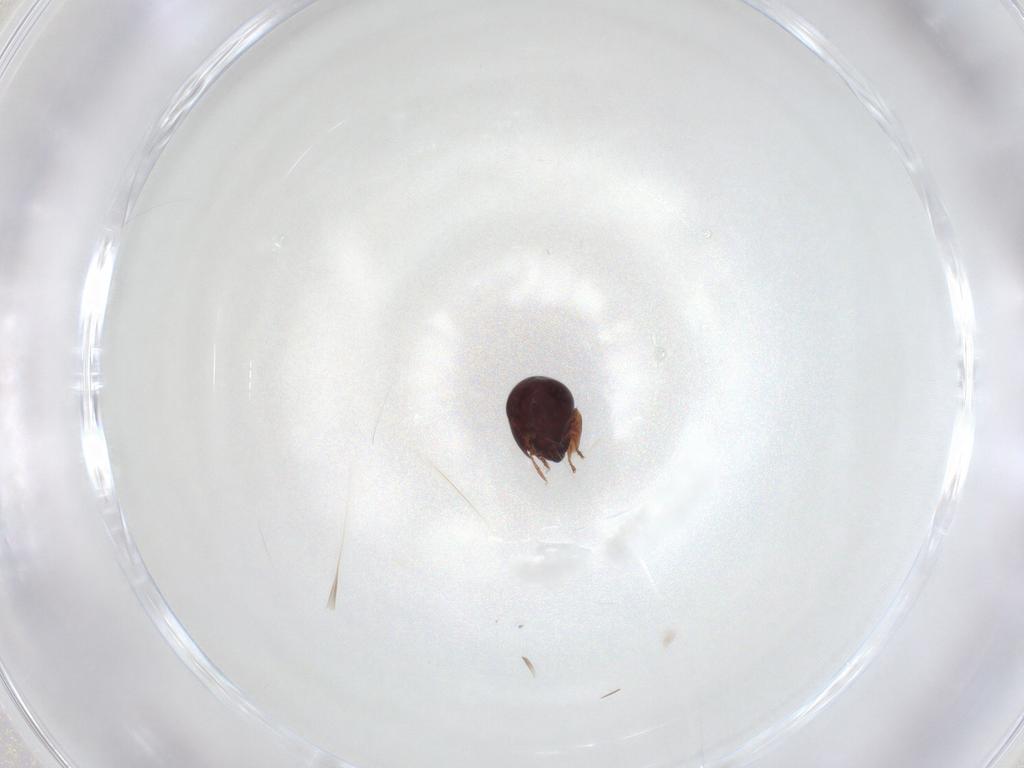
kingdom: Animalia
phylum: Arthropoda
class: Arachnida
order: Sarcoptiformes
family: Galumnidae
